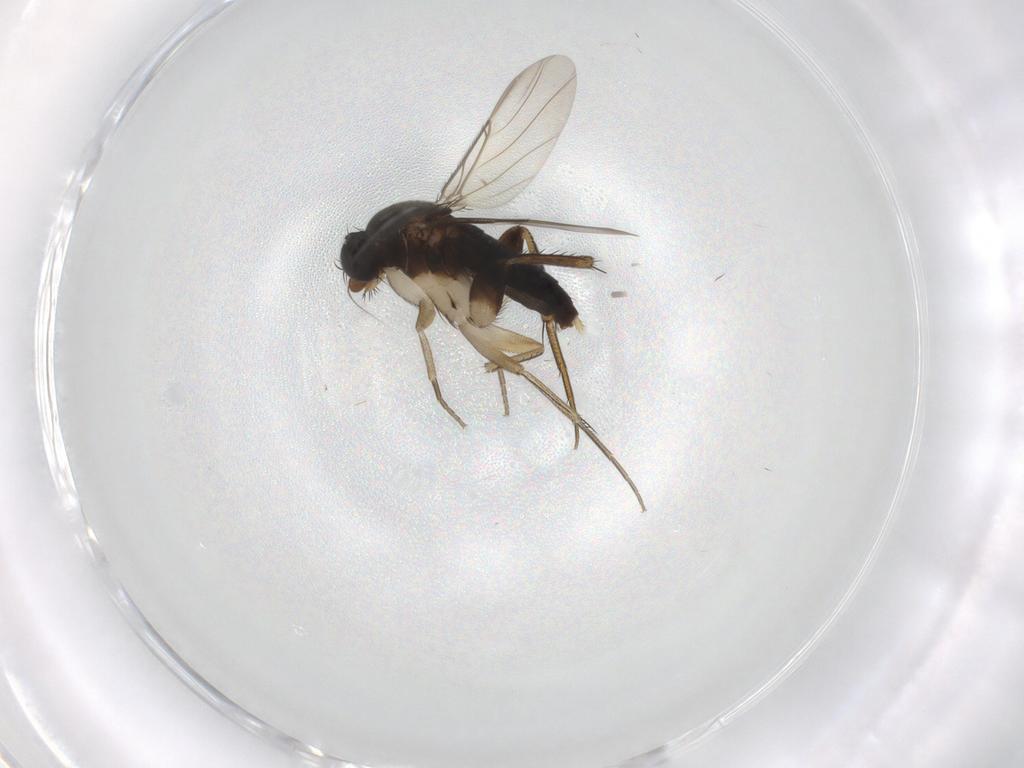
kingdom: Animalia
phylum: Arthropoda
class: Insecta
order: Diptera
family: Phoridae
